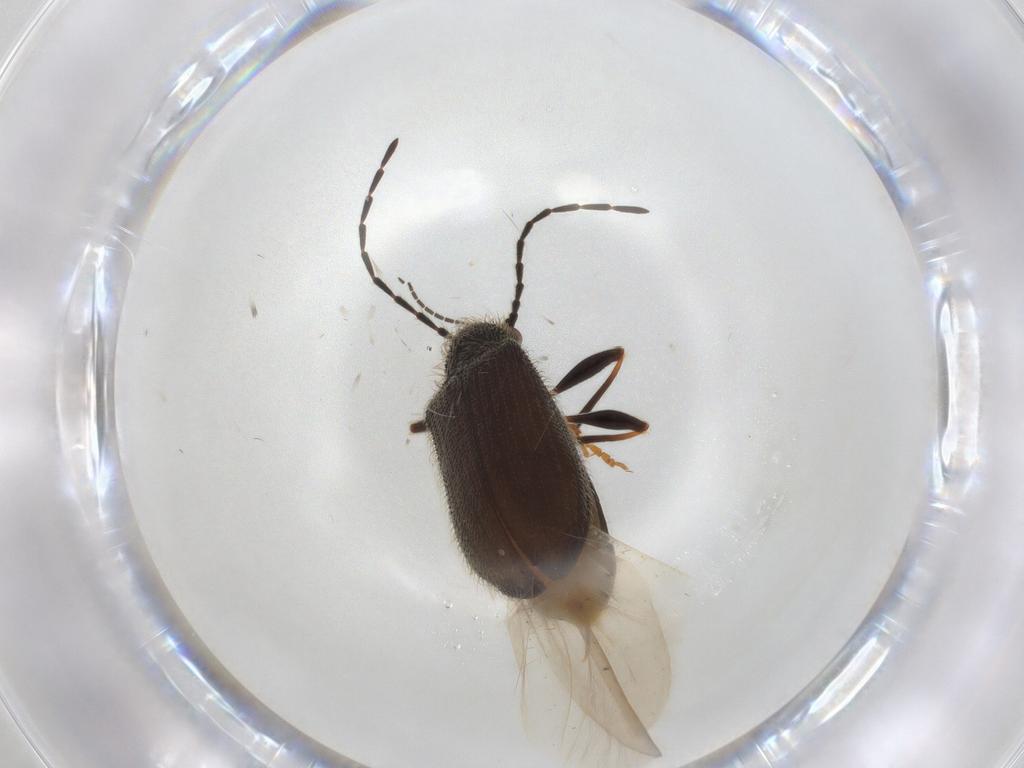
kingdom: Animalia
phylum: Arthropoda
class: Insecta
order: Coleoptera
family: Ptinidae
